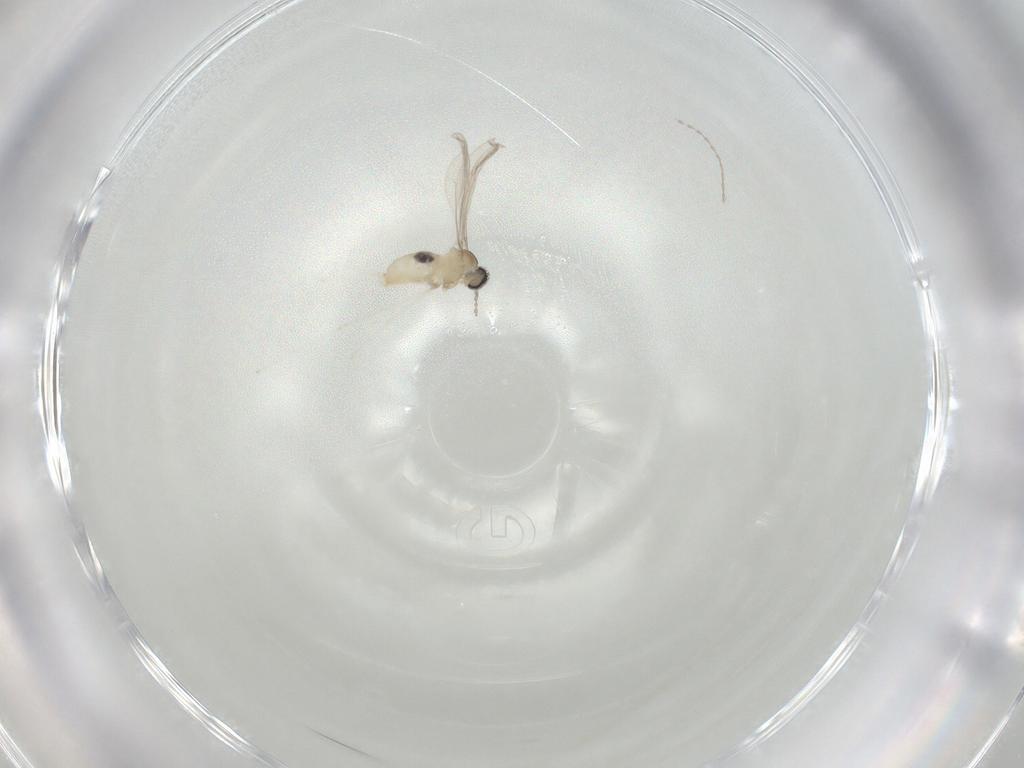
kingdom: Animalia
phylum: Arthropoda
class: Insecta
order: Diptera
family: Cecidomyiidae
